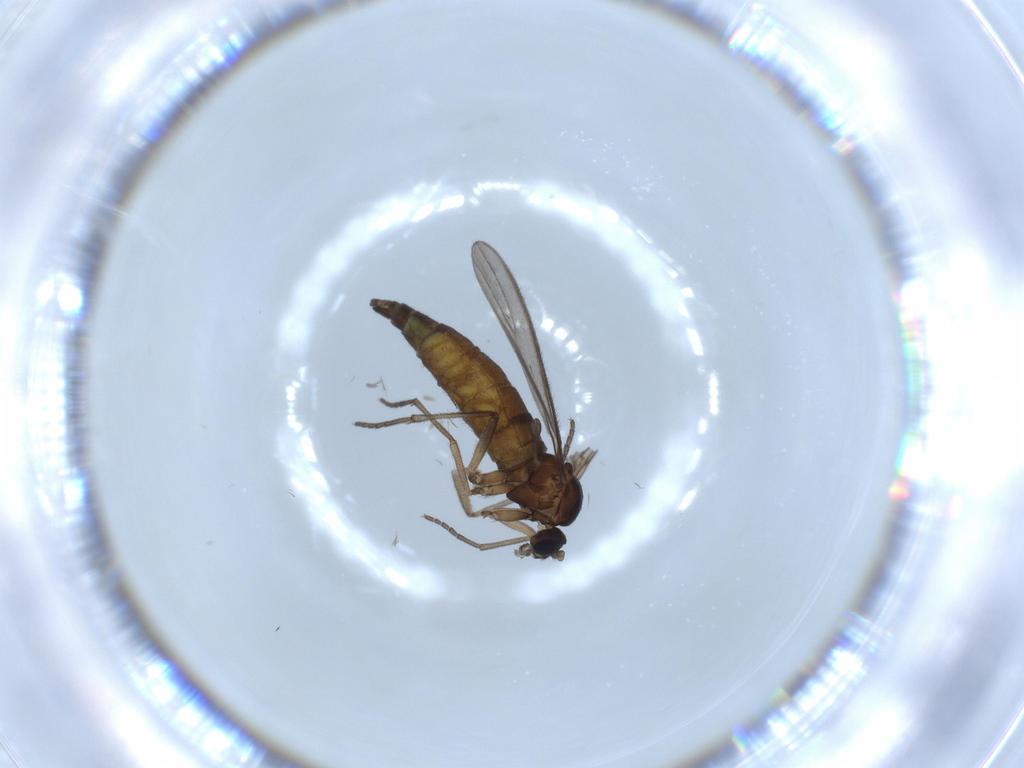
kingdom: Animalia
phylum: Arthropoda
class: Insecta
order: Diptera
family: Sciaridae
